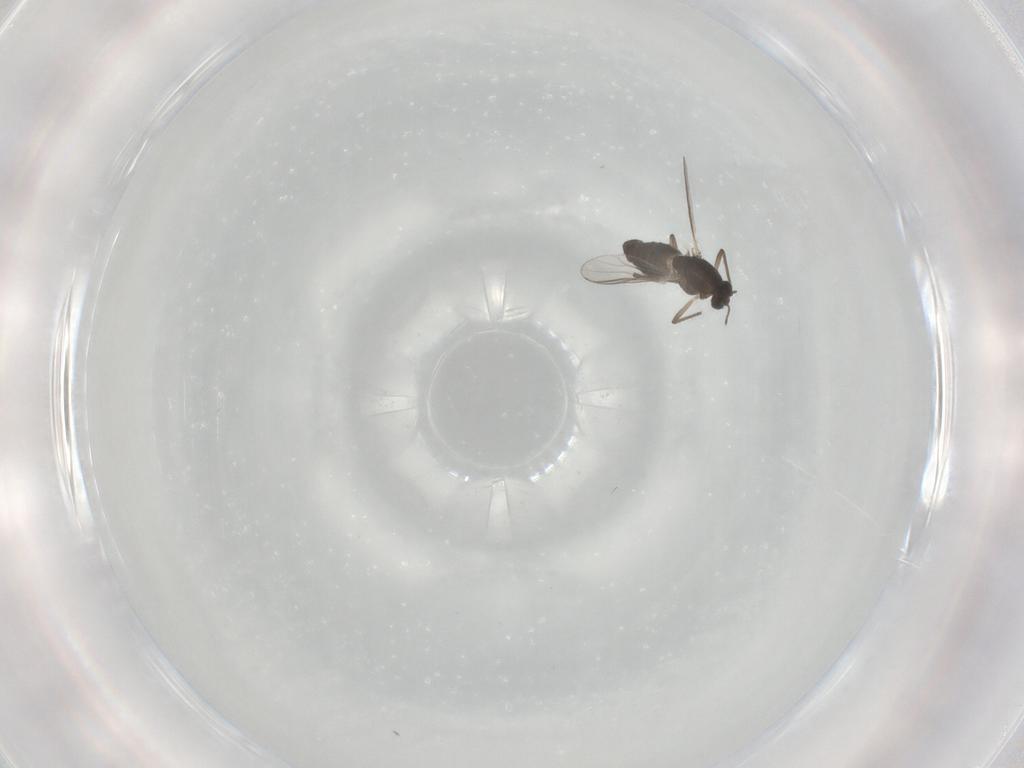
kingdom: Animalia
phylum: Arthropoda
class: Insecta
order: Diptera
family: Chironomidae
